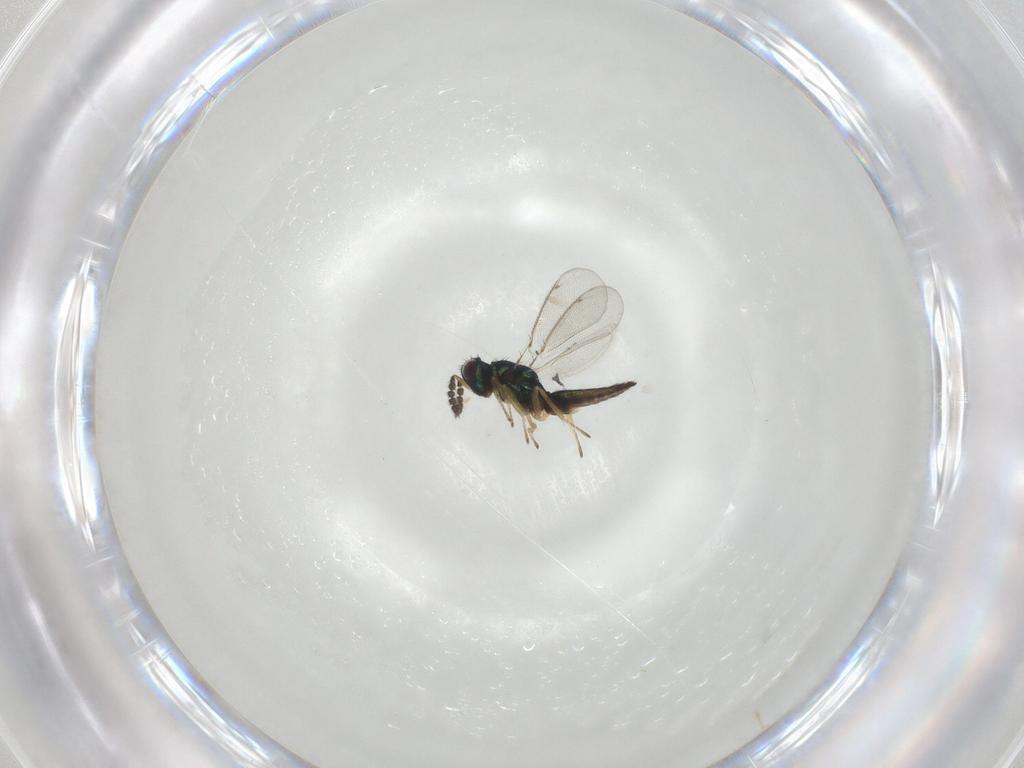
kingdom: Animalia
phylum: Arthropoda
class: Insecta
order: Hymenoptera
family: Eulophidae
